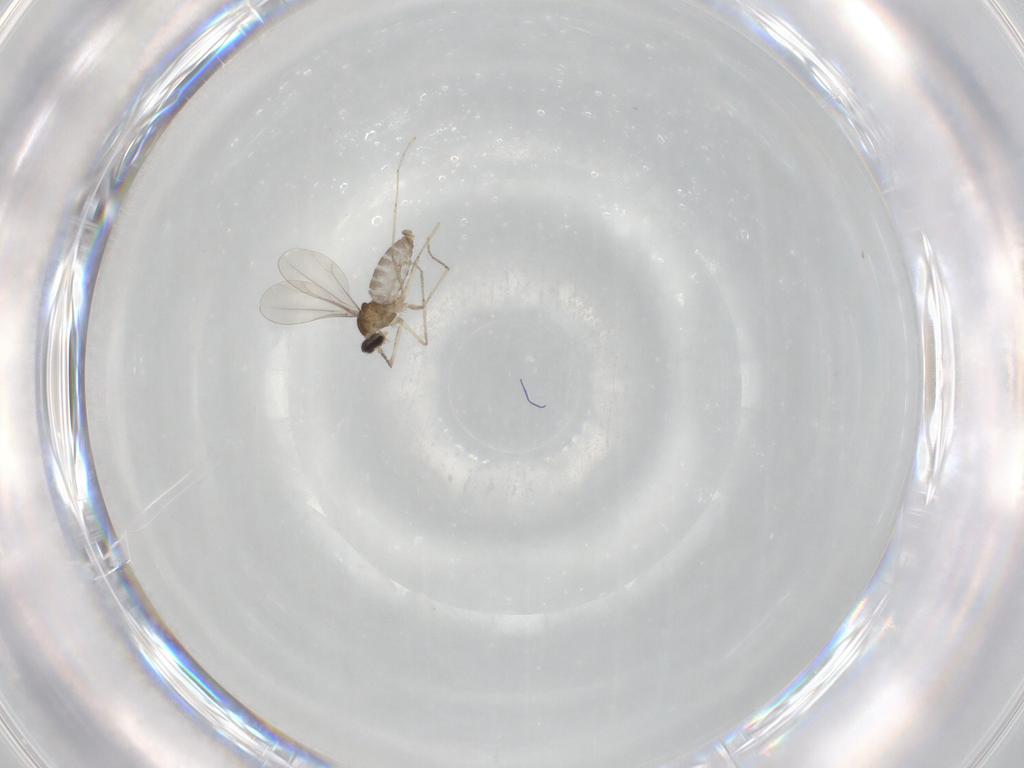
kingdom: Animalia
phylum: Arthropoda
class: Insecta
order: Diptera
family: Cecidomyiidae
